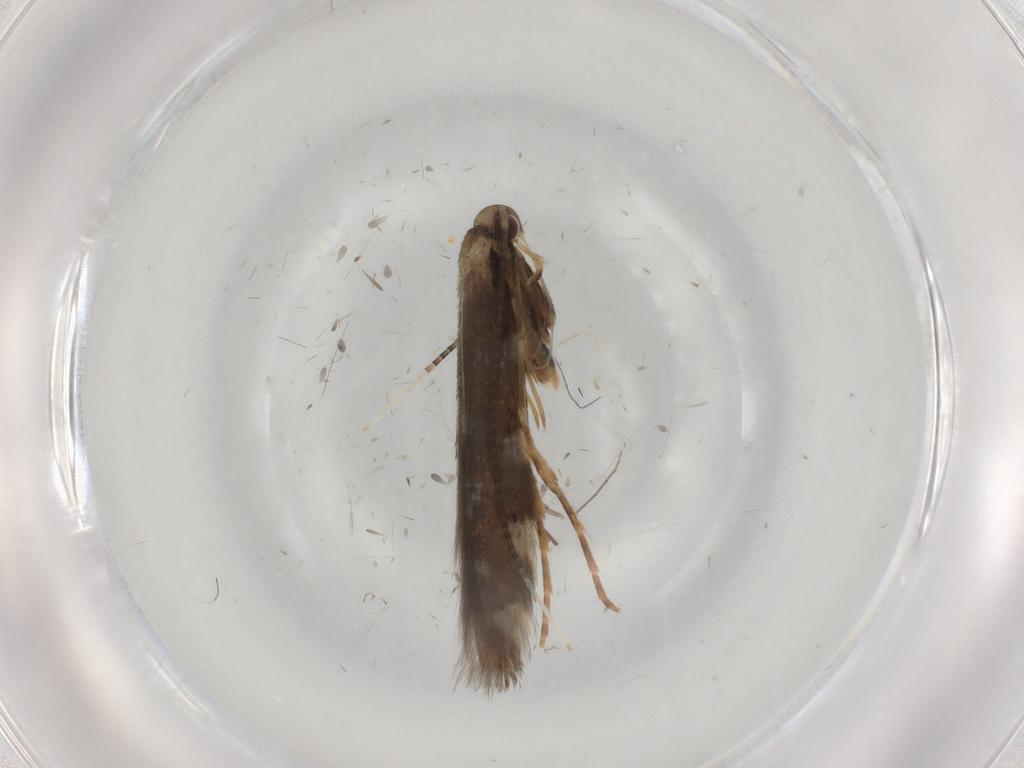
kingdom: Animalia
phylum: Arthropoda
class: Insecta
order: Lepidoptera
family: Erebidae
